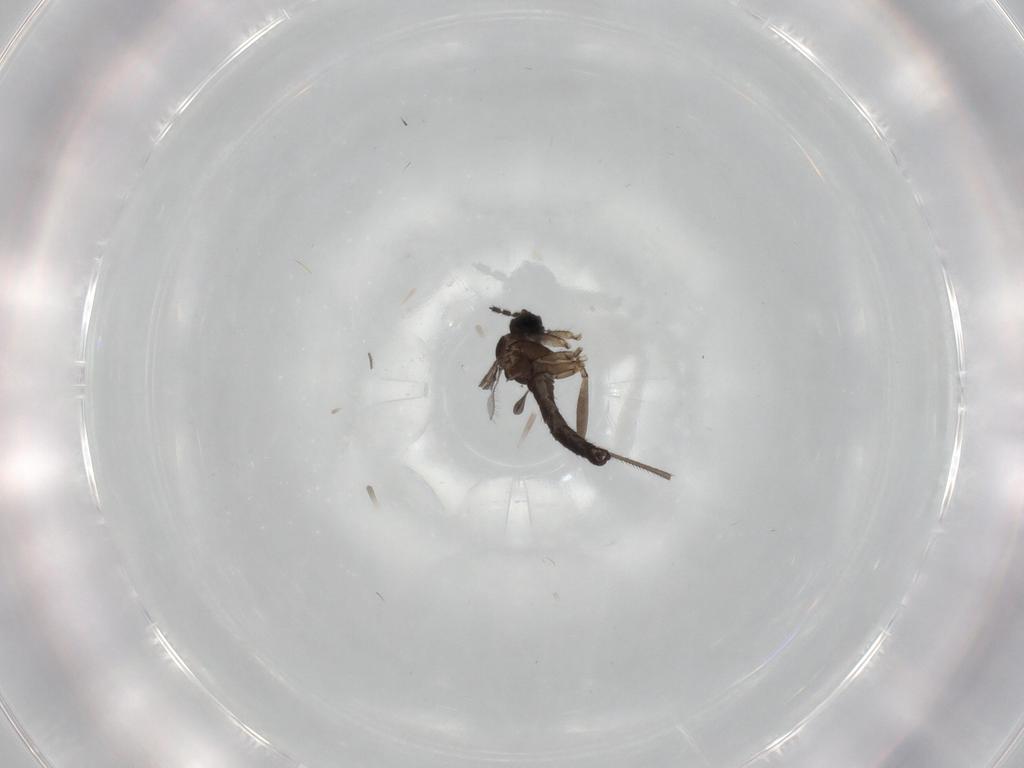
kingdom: Animalia
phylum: Arthropoda
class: Insecta
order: Diptera
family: Sciaridae
